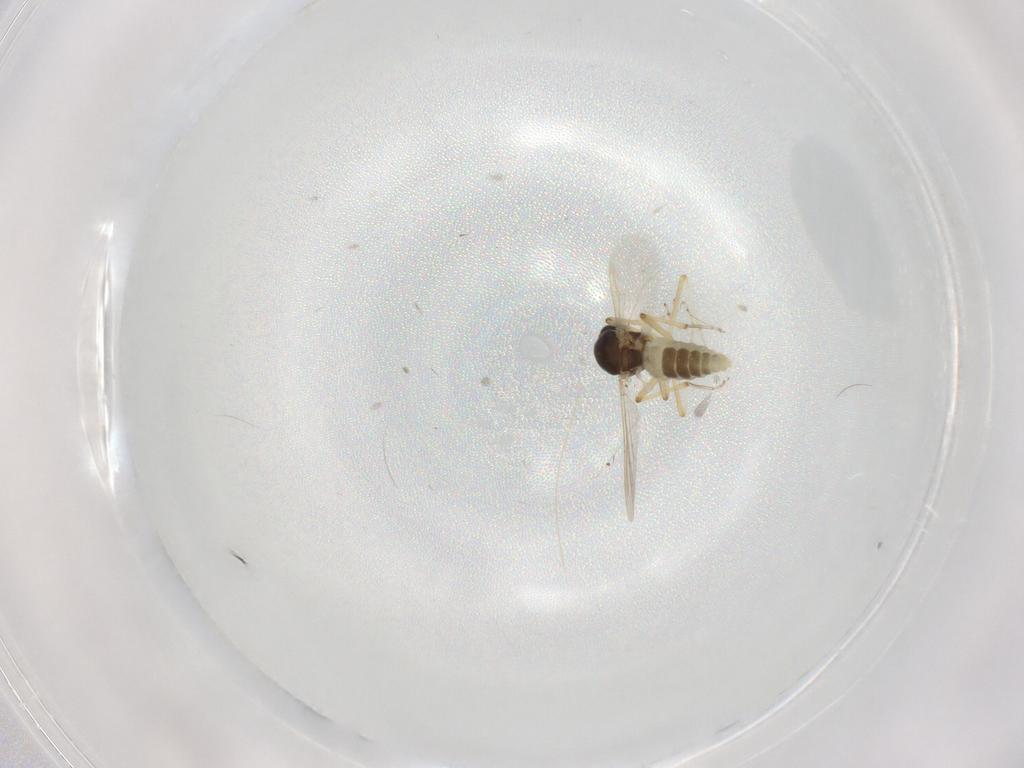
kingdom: Animalia
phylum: Arthropoda
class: Insecta
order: Diptera
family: Ceratopogonidae
